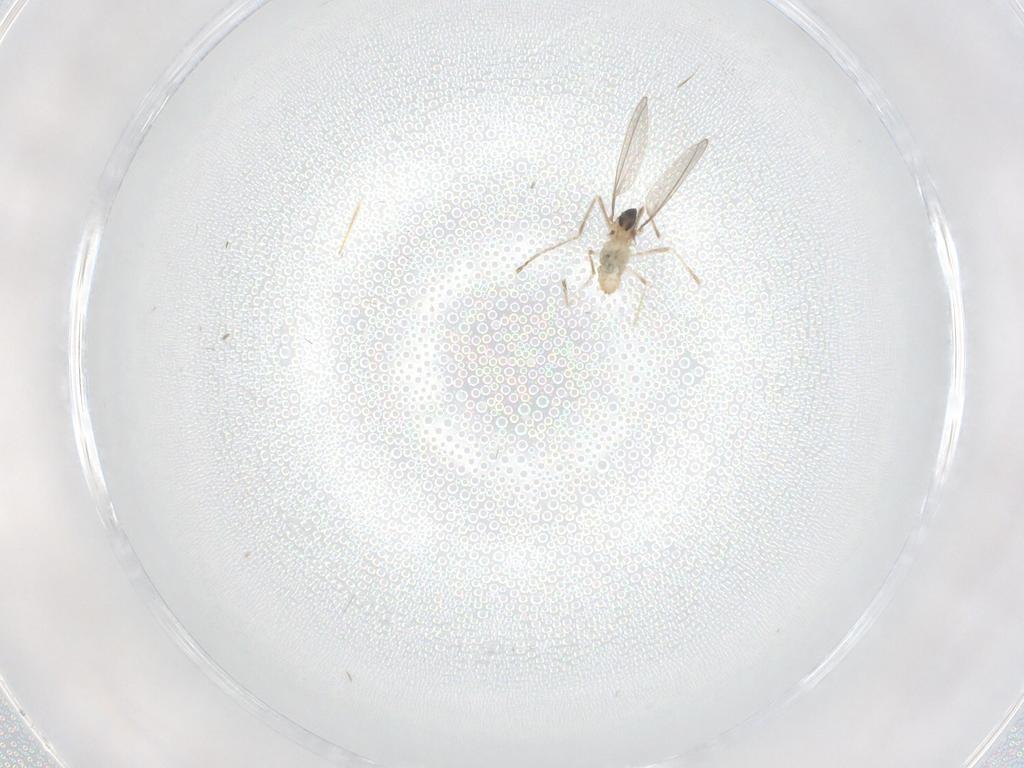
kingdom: Animalia
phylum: Arthropoda
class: Insecta
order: Diptera
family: Cecidomyiidae
